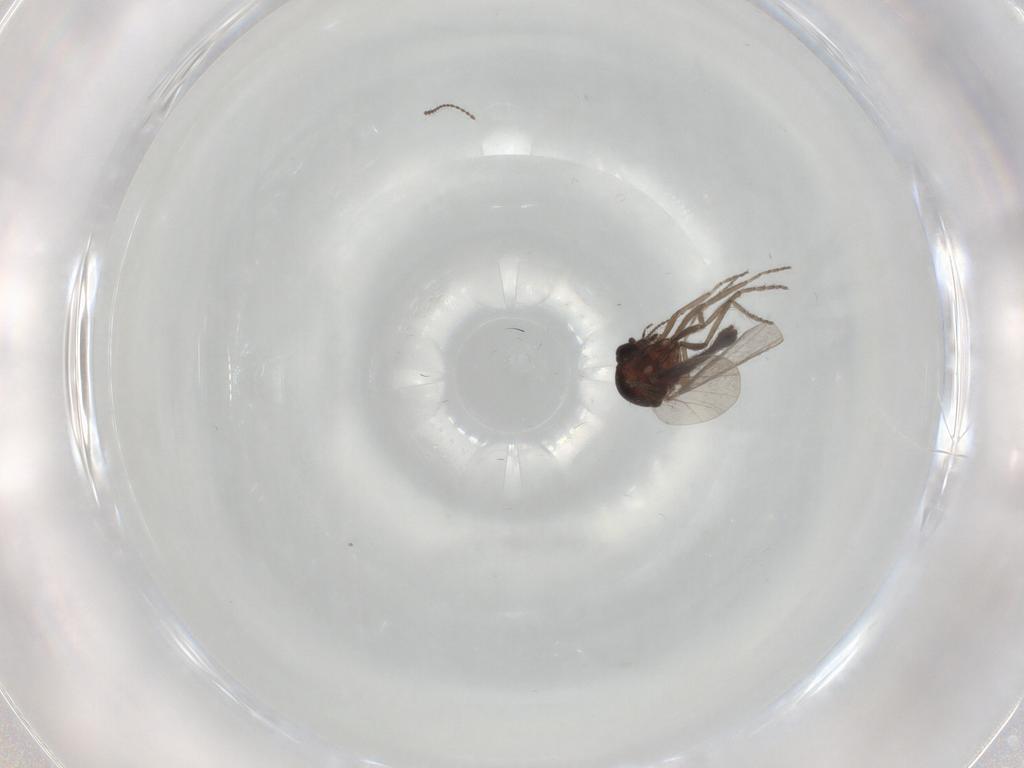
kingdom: Animalia
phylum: Arthropoda
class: Insecta
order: Diptera
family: Ceratopogonidae
